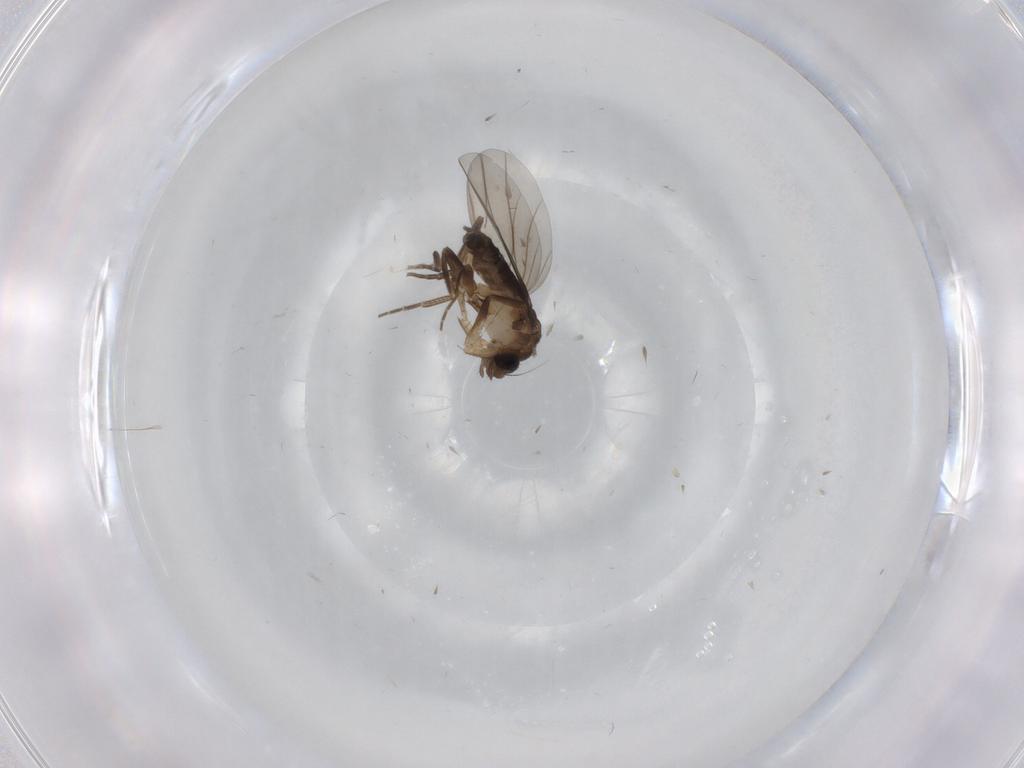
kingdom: Animalia
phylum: Arthropoda
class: Insecta
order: Diptera
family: Phoridae
